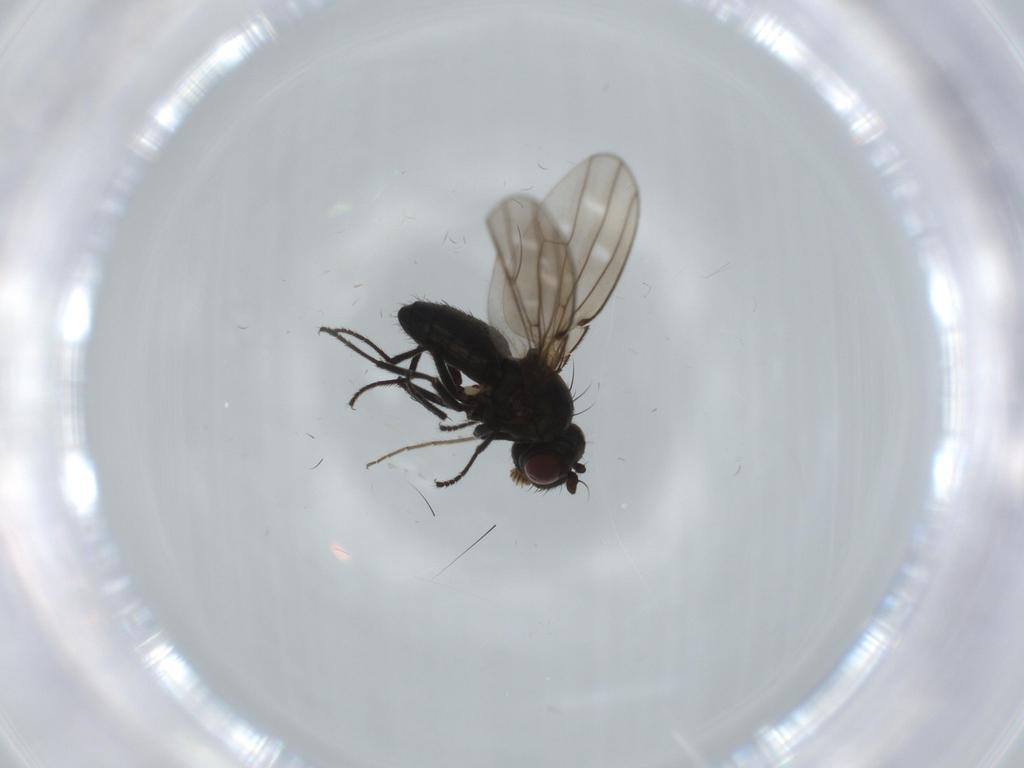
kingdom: Animalia
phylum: Arthropoda
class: Insecta
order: Diptera
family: Ephydridae
